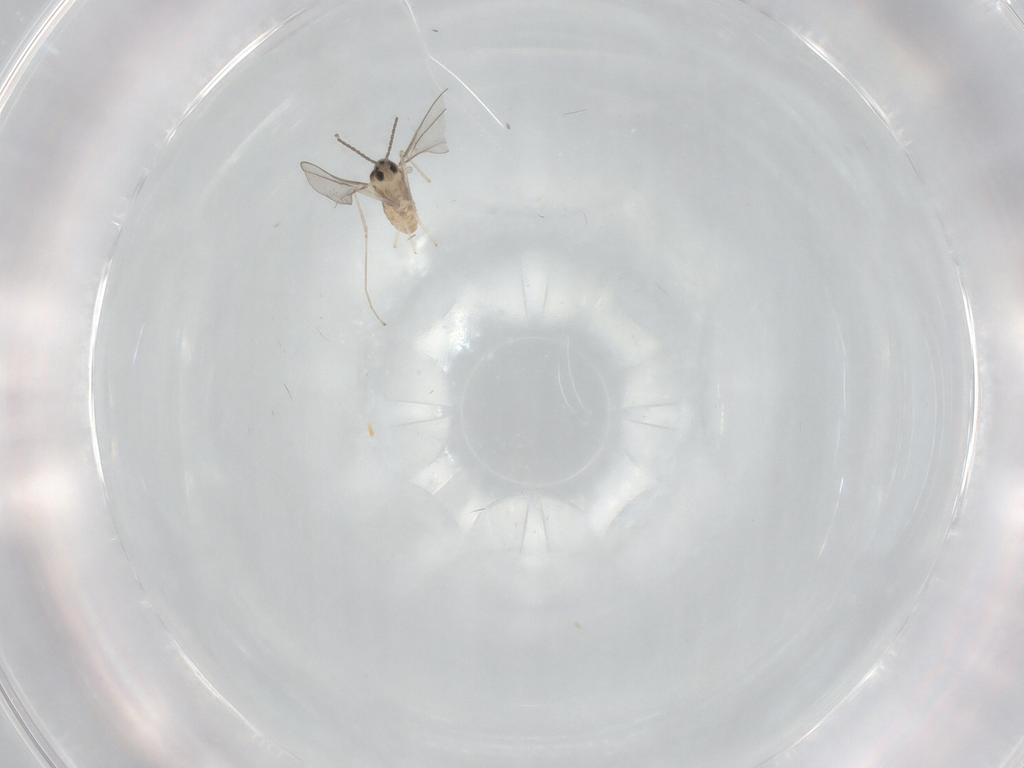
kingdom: Animalia
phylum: Arthropoda
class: Insecta
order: Diptera
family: Cecidomyiidae
